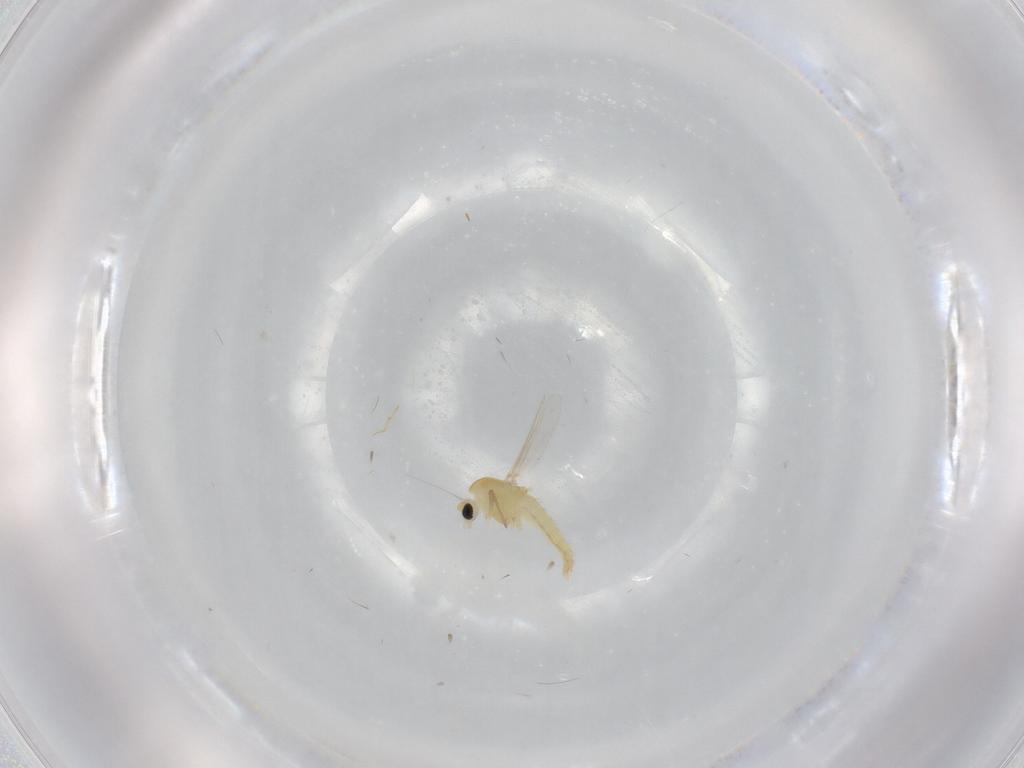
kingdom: Animalia
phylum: Arthropoda
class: Insecta
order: Diptera
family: Chironomidae
